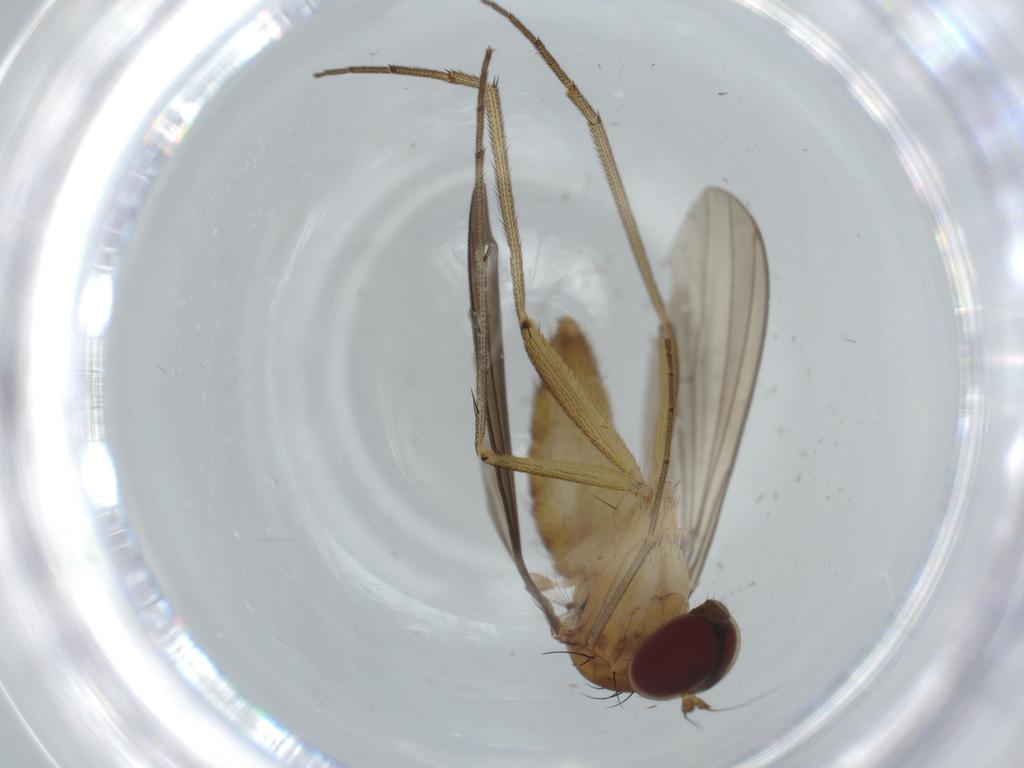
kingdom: Animalia
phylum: Arthropoda
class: Insecta
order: Diptera
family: Dolichopodidae
